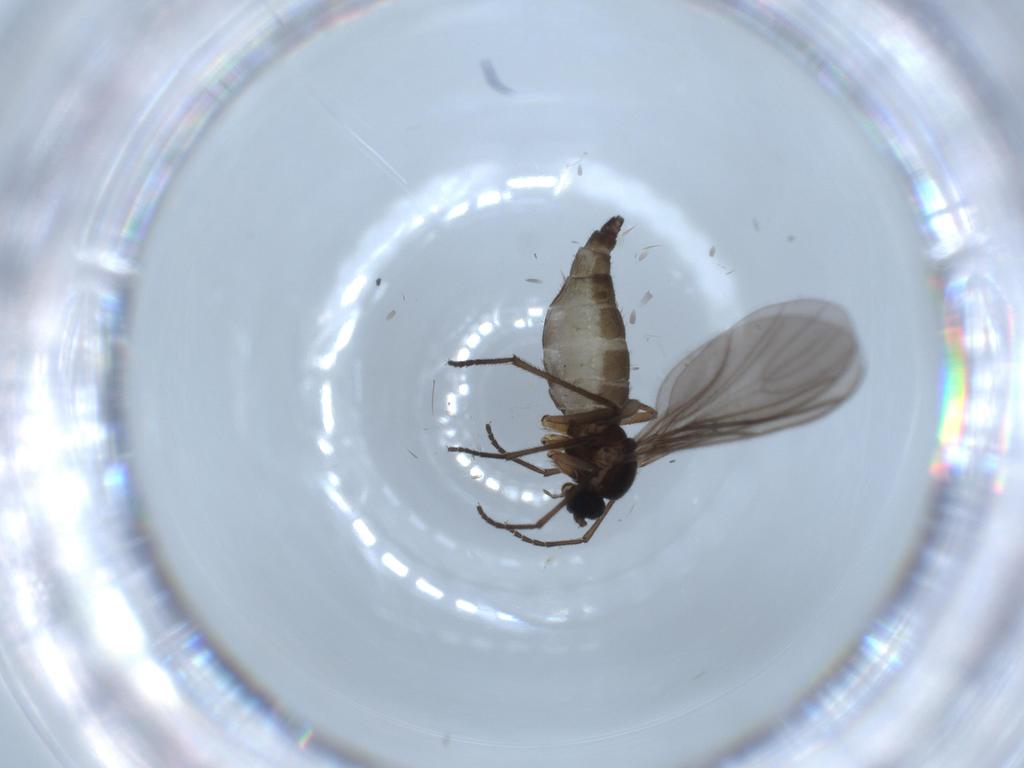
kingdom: Animalia
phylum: Arthropoda
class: Insecta
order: Diptera
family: Sciaridae
